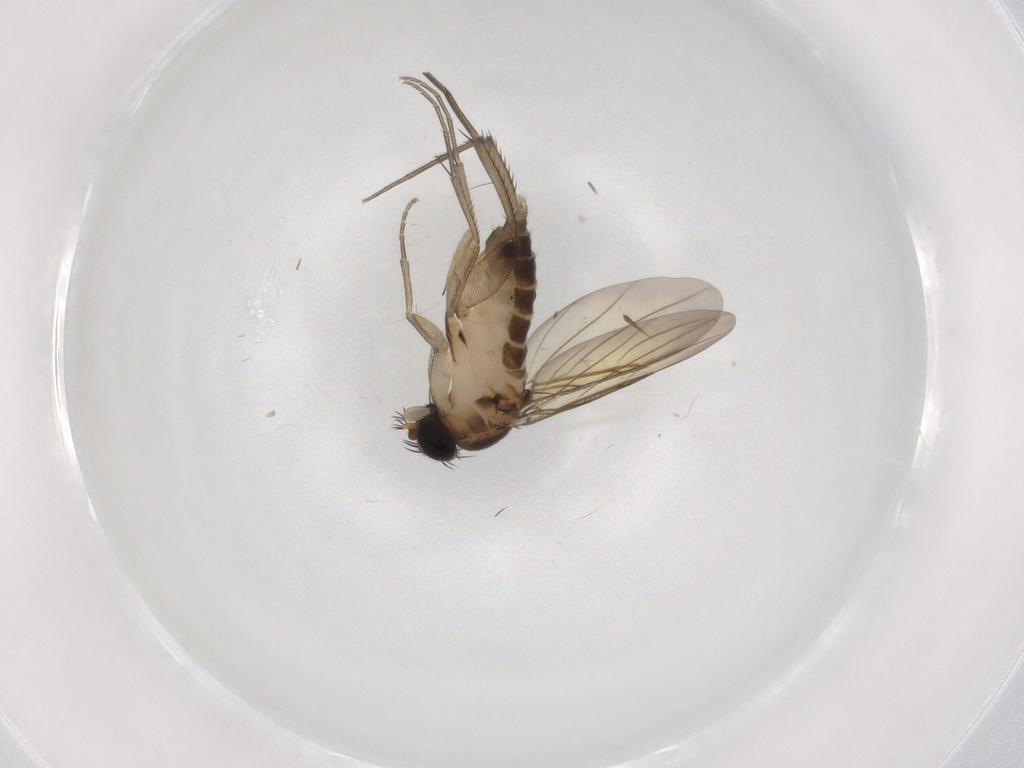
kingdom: Animalia
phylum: Arthropoda
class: Insecta
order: Diptera
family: Phoridae
